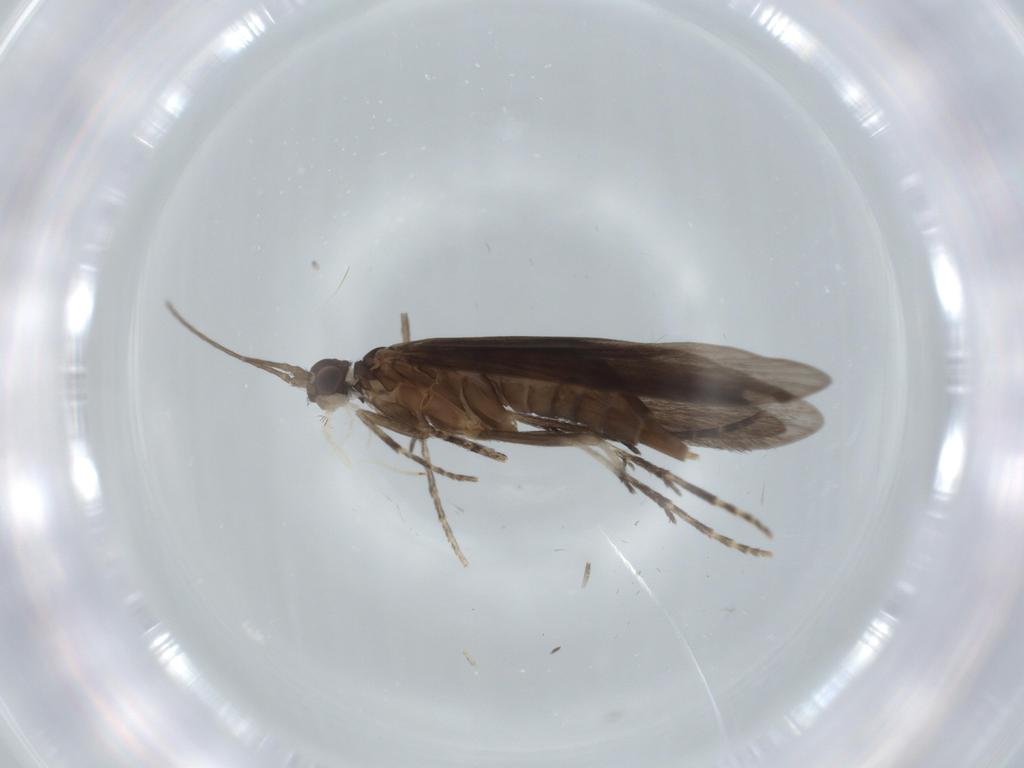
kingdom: Animalia
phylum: Arthropoda
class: Insecta
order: Trichoptera
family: Xiphocentronidae
